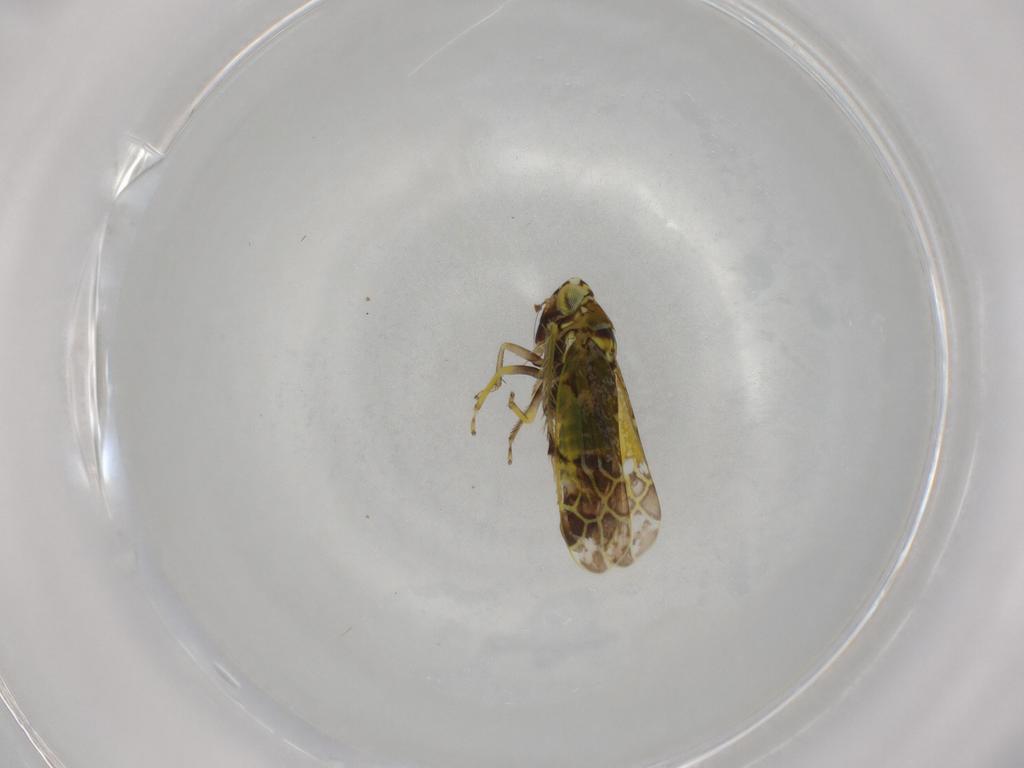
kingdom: Animalia
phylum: Arthropoda
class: Insecta
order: Hemiptera
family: Cicadellidae
